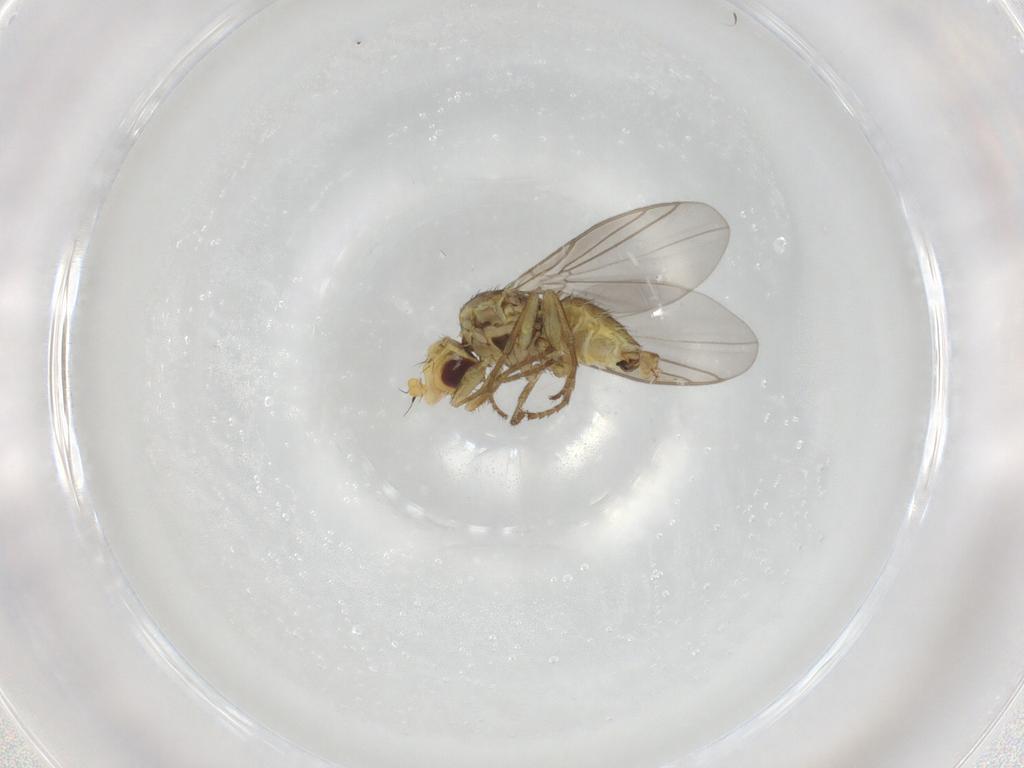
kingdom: Animalia
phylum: Arthropoda
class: Insecta
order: Diptera
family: Agromyzidae
